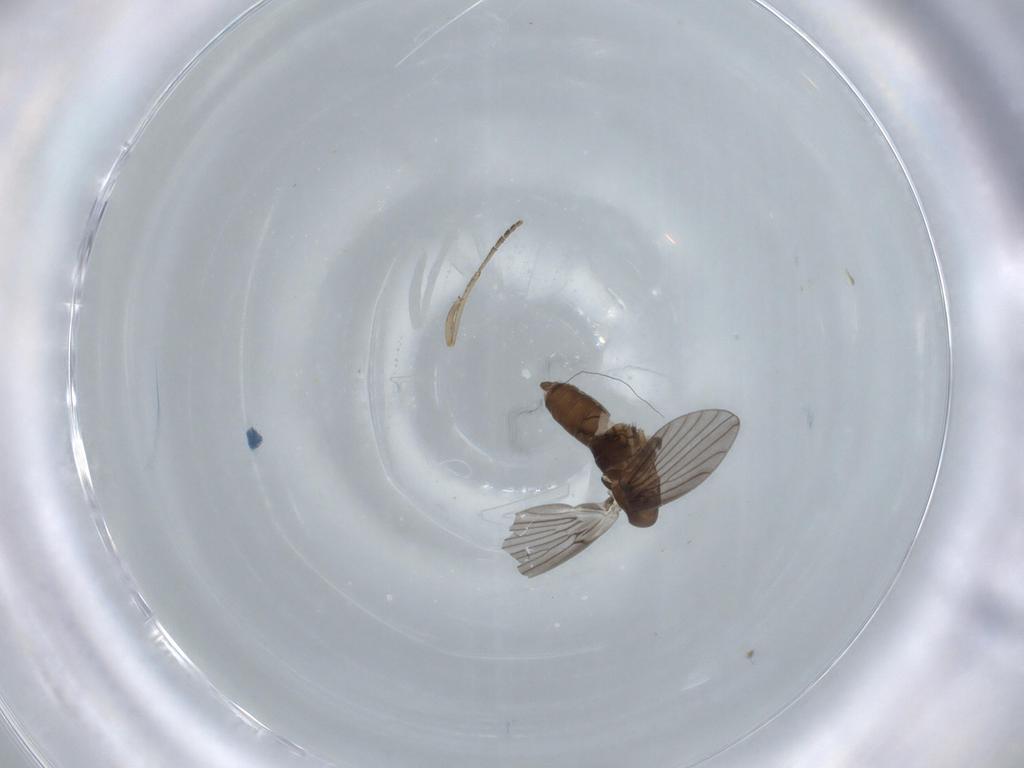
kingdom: Animalia
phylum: Arthropoda
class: Insecta
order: Diptera
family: Psychodidae
